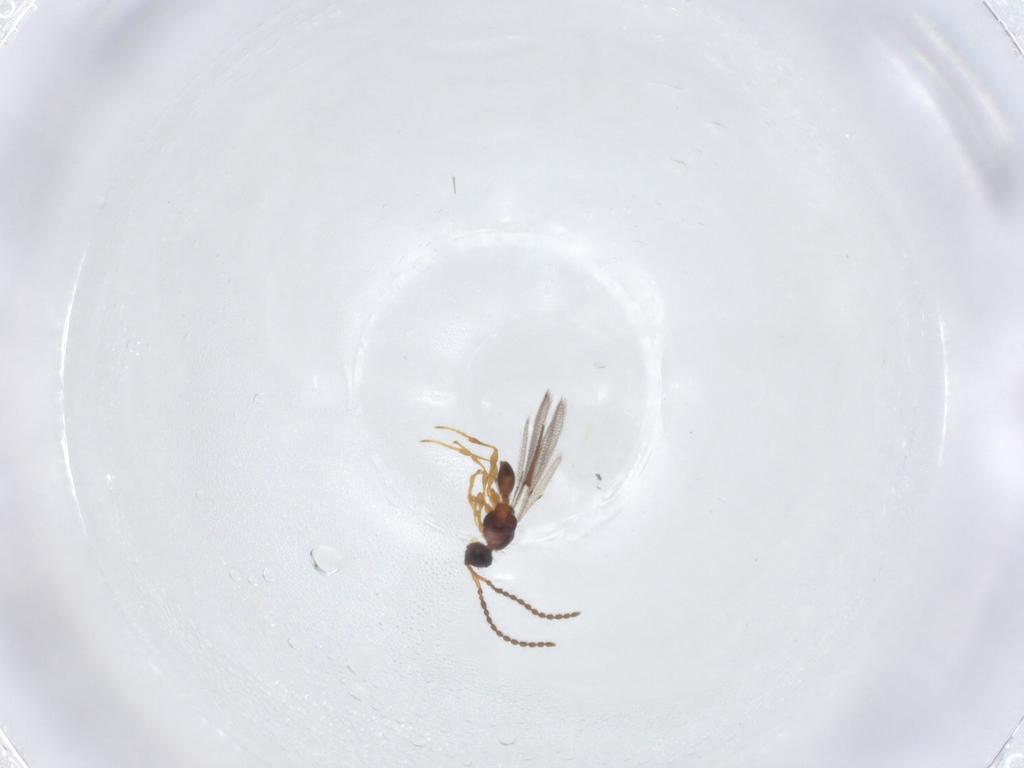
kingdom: Animalia
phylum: Arthropoda
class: Insecta
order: Hymenoptera
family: Diapriidae
